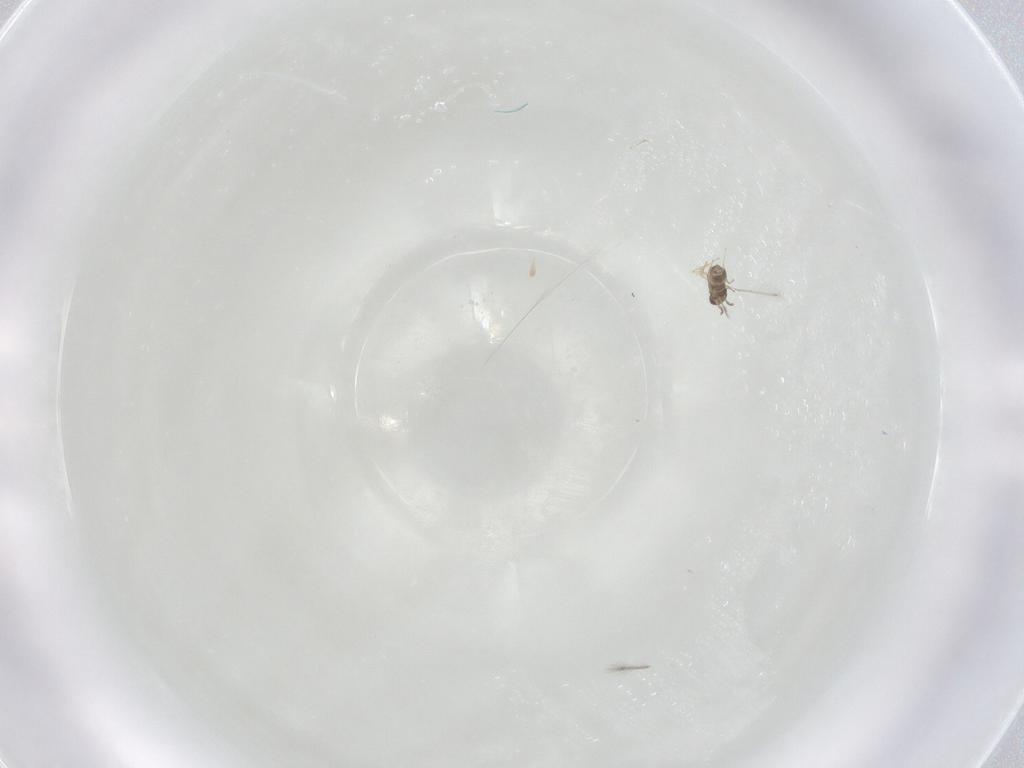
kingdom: Animalia
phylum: Arthropoda
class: Insecta
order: Hymenoptera
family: Mymaridae
